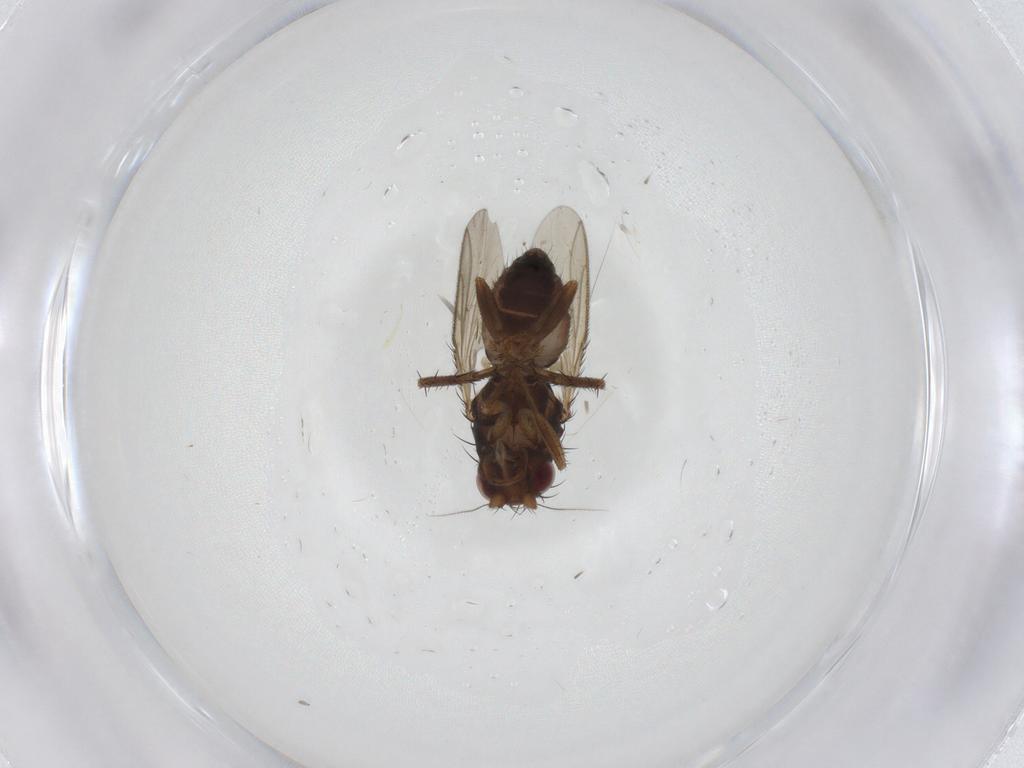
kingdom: Animalia
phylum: Arthropoda
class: Insecta
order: Diptera
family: Sphaeroceridae
